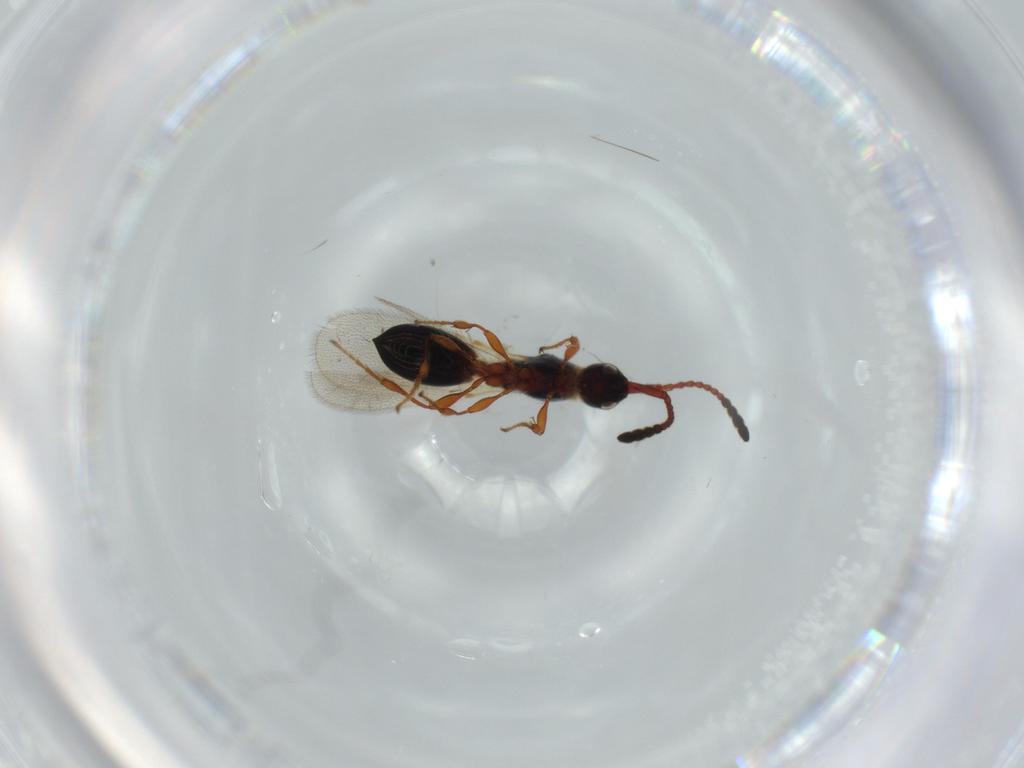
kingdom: Animalia
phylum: Arthropoda
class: Insecta
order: Hymenoptera
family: Diapriidae
